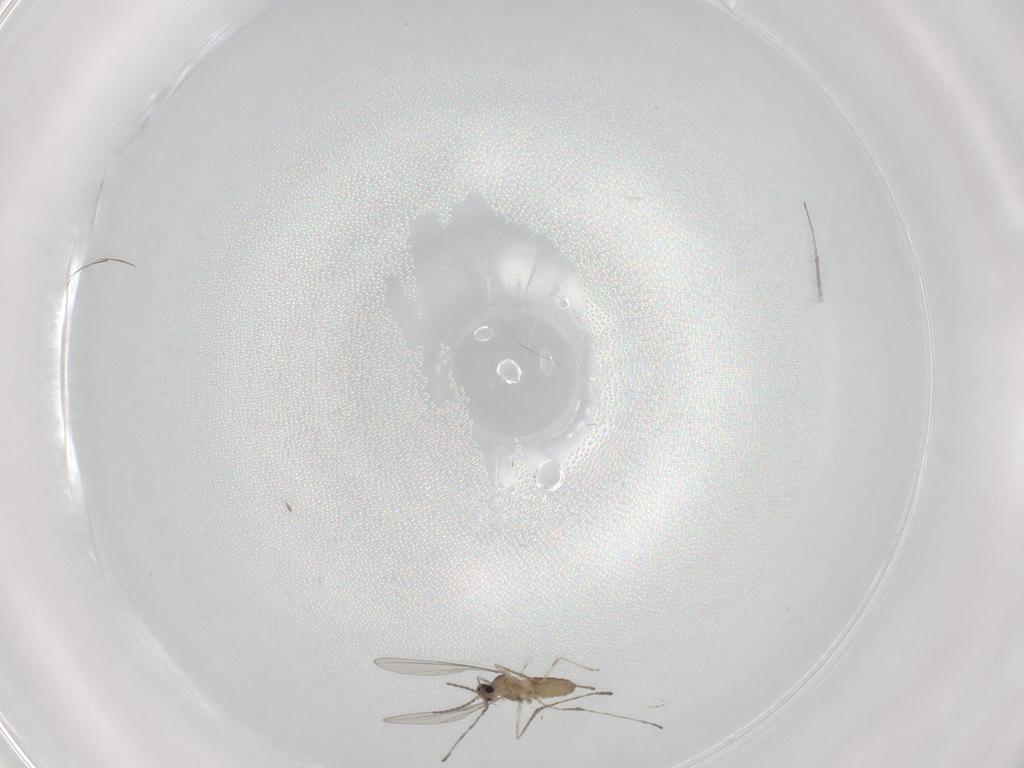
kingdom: Animalia
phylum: Arthropoda
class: Insecta
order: Diptera
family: Cecidomyiidae
